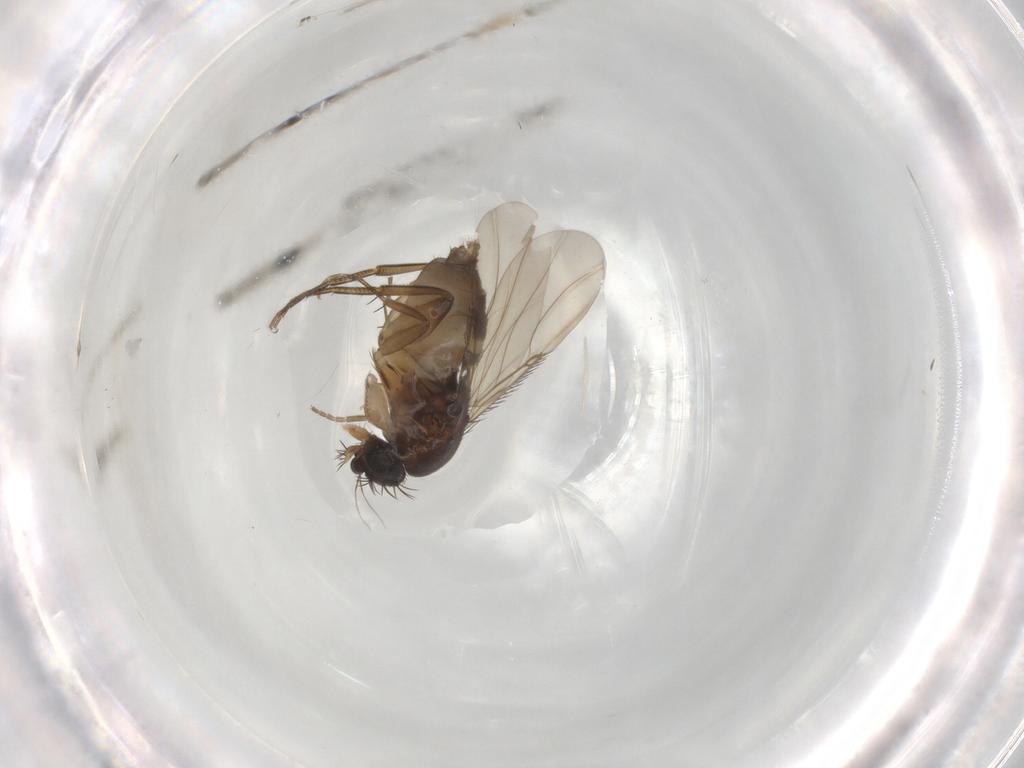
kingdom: Animalia
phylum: Arthropoda
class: Insecta
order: Diptera
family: Phoridae
